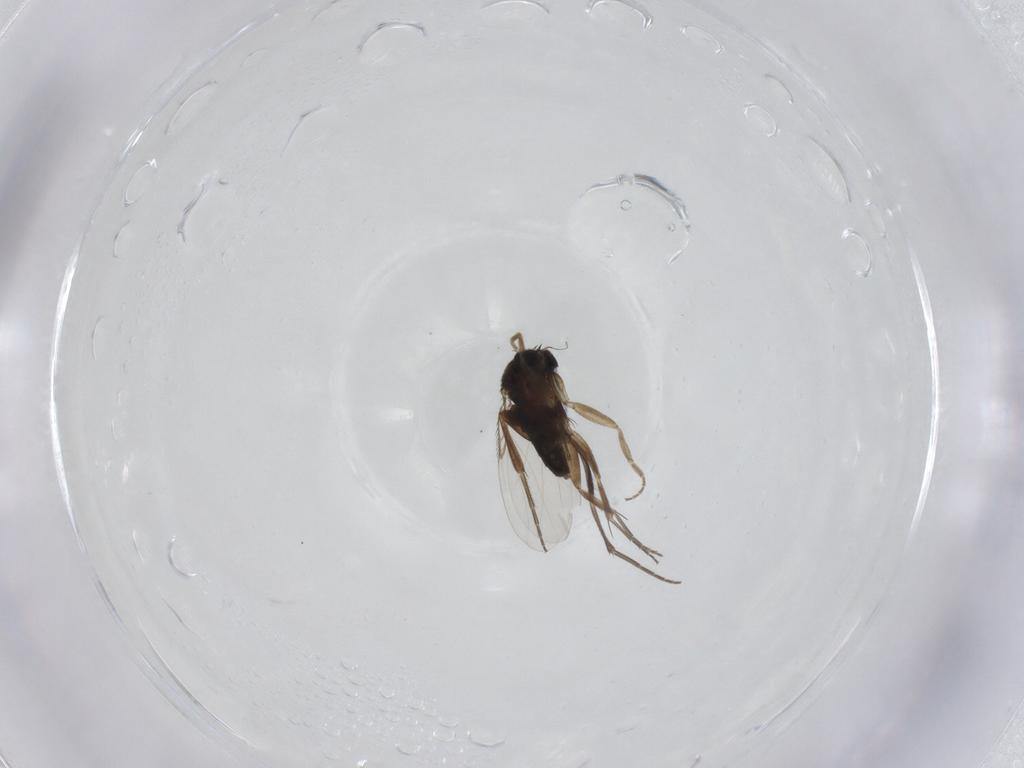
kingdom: Animalia
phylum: Arthropoda
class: Insecta
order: Diptera
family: Phoridae
